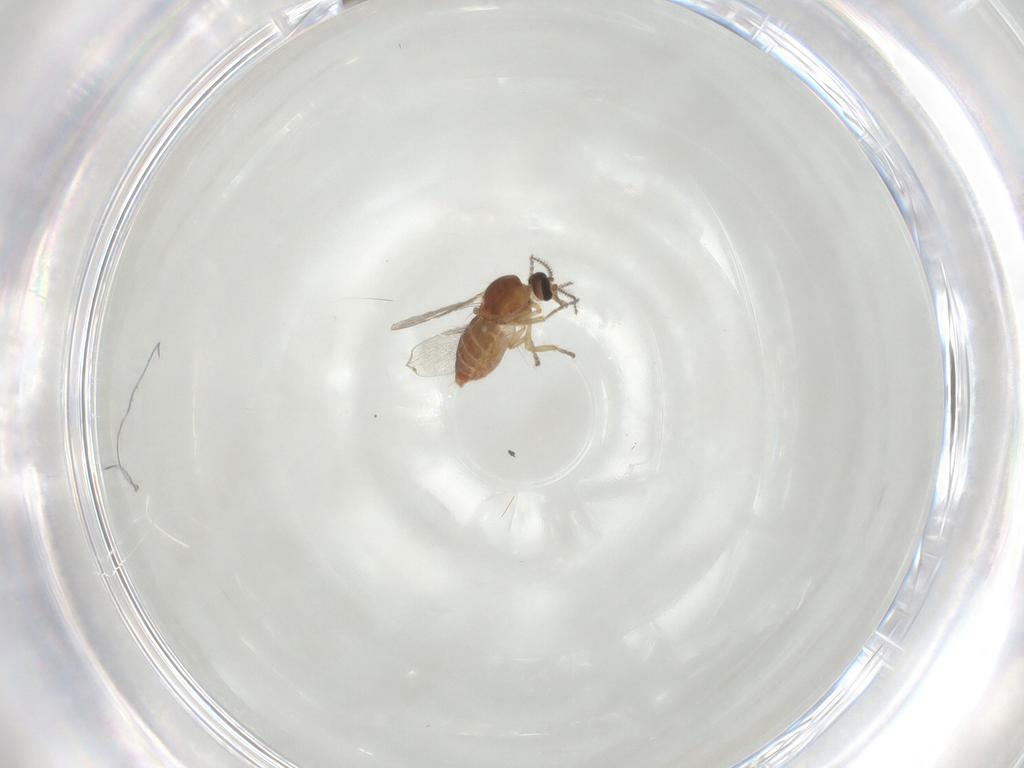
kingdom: Animalia
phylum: Arthropoda
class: Insecta
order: Diptera
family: Ceratopogonidae
